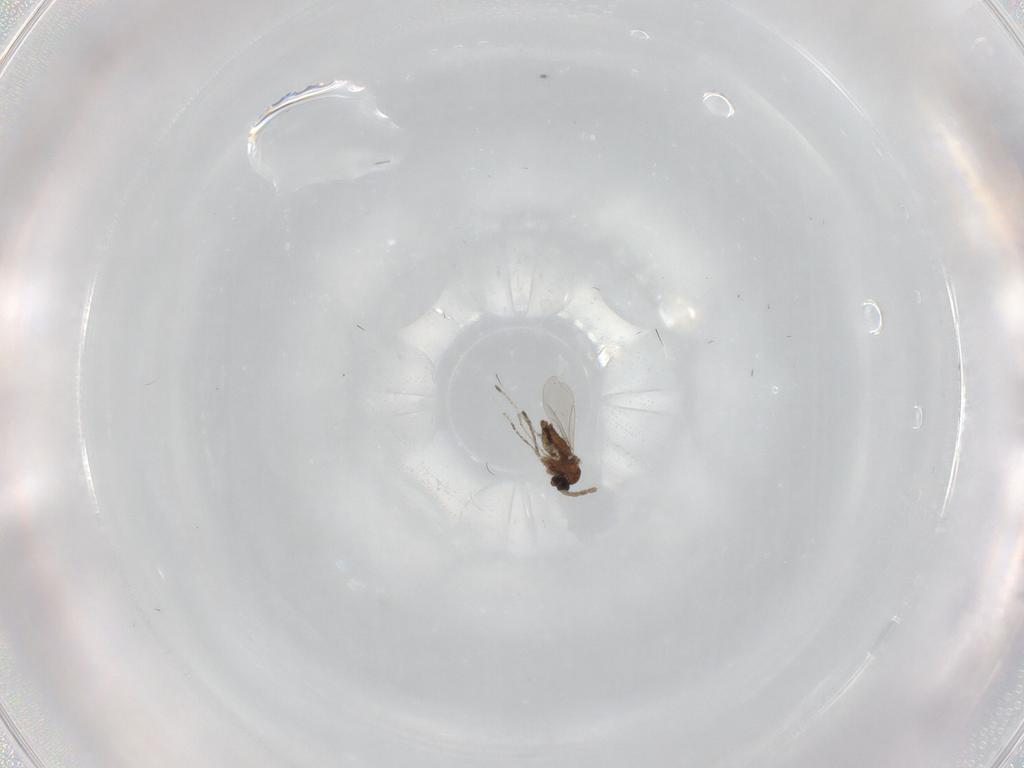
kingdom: Animalia
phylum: Arthropoda
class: Insecta
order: Diptera
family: Cecidomyiidae
